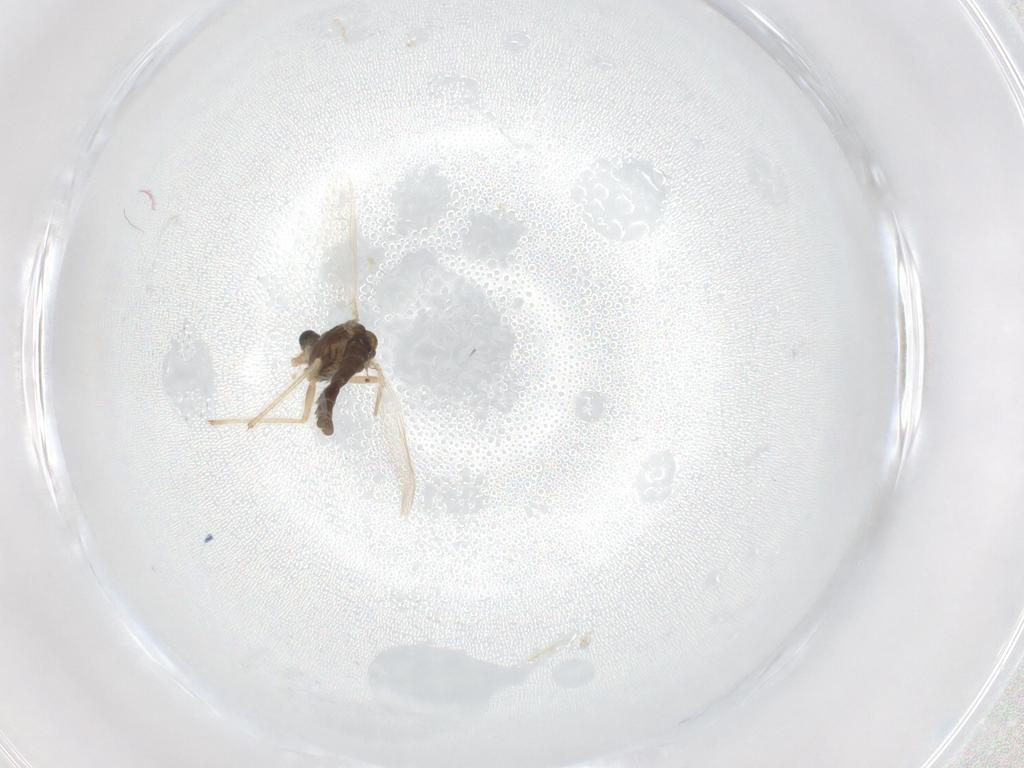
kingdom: Animalia
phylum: Arthropoda
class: Insecta
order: Diptera
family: Chironomidae
